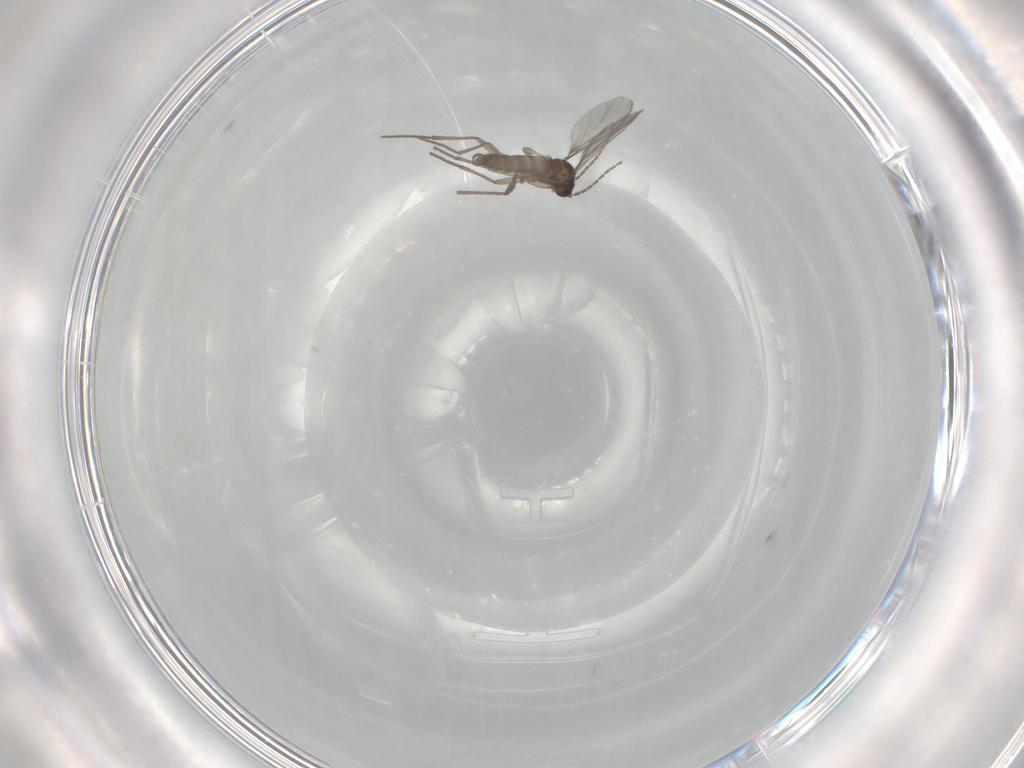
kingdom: Animalia
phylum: Arthropoda
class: Insecta
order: Diptera
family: Sciaridae
